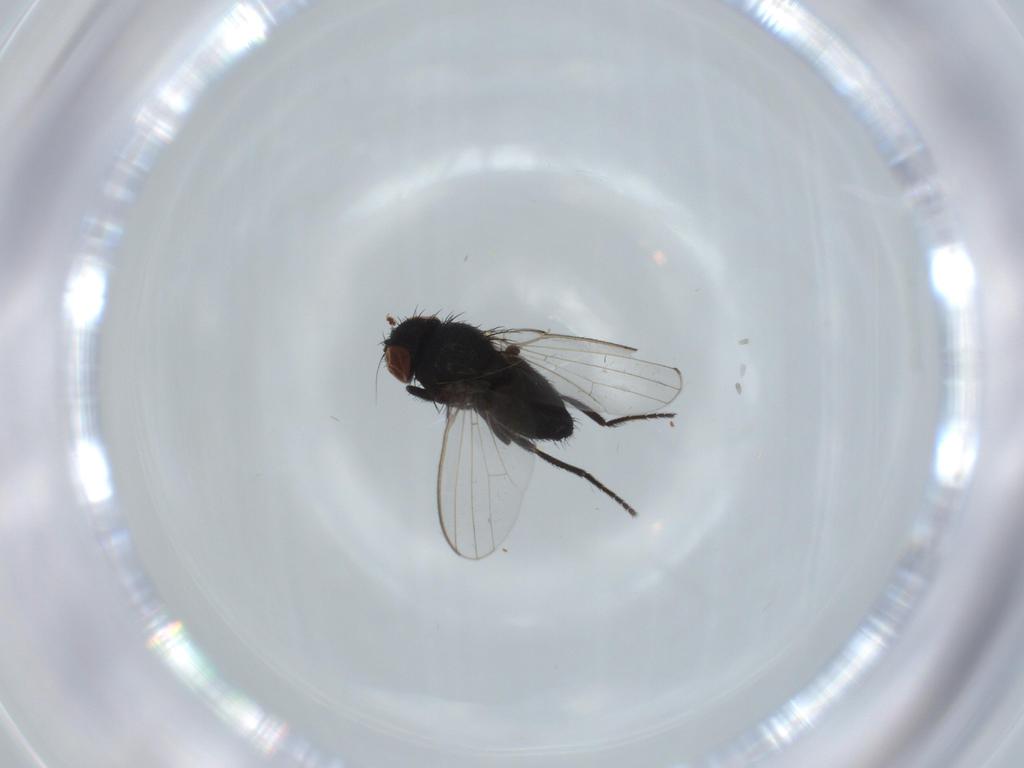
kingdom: Animalia
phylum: Arthropoda
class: Insecta
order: Diptera
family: Milichiidae
